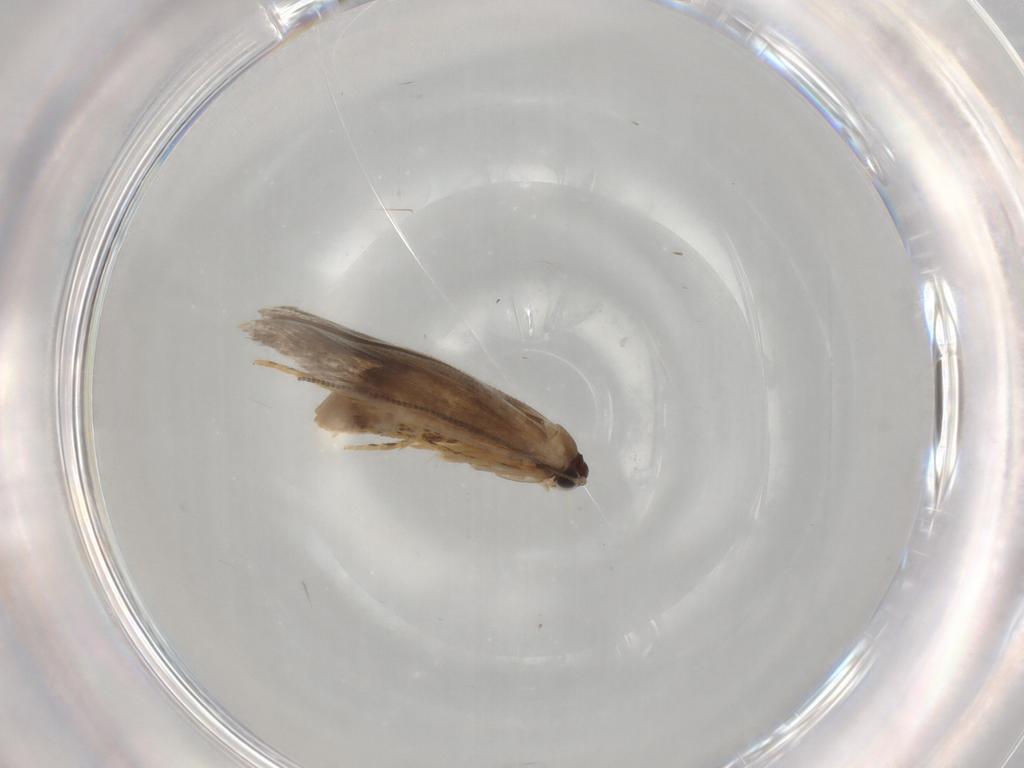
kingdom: Animalia
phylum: Arthropoda
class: Insecta
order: Lepidoptera
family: Tineidae
